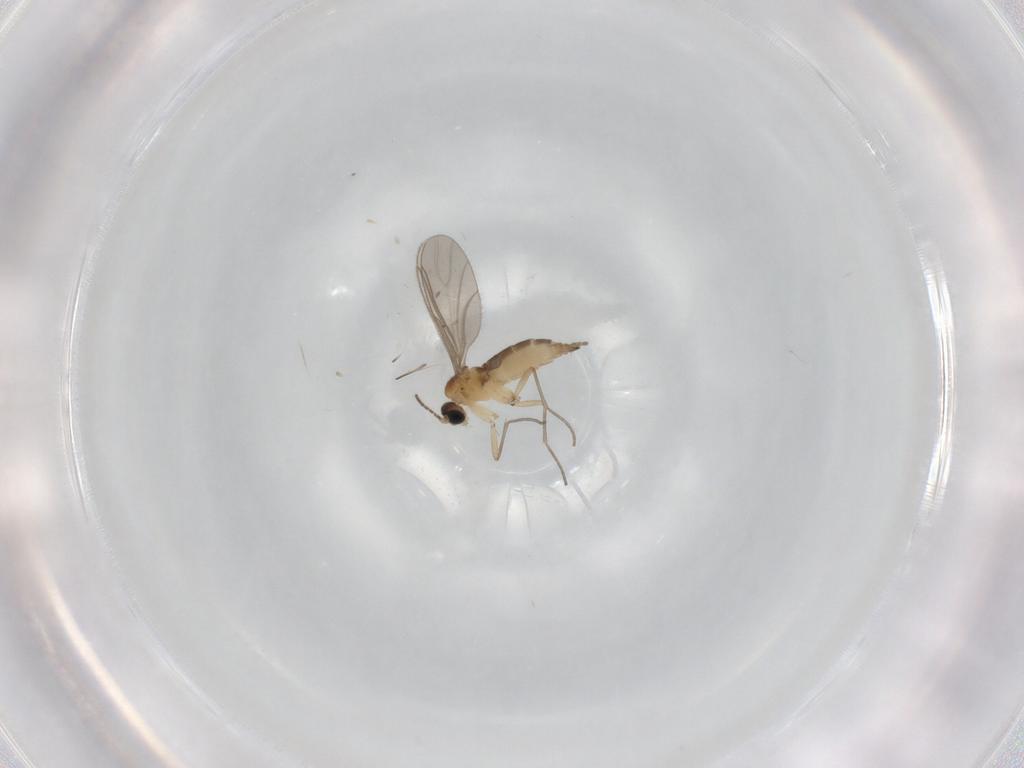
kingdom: Animalia
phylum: Arthropoda
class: Insecta
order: Diptera
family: Sciaridae
